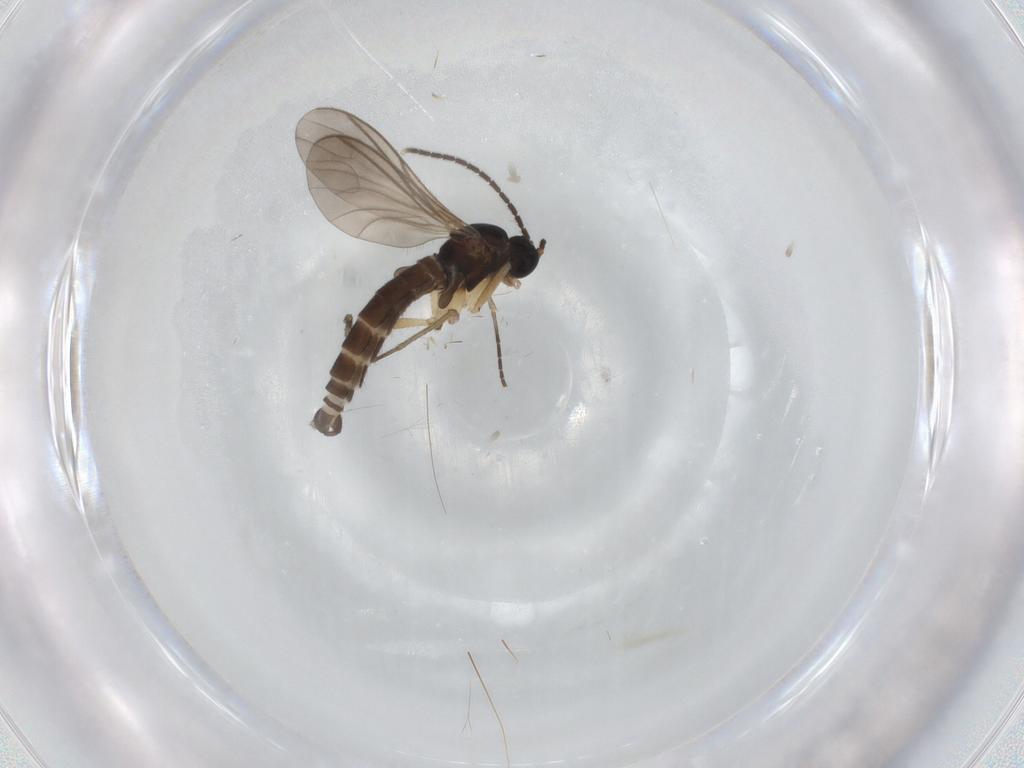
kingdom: Animalia
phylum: Arthropoda
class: Insecta
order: Diptera
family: Sciaridae
